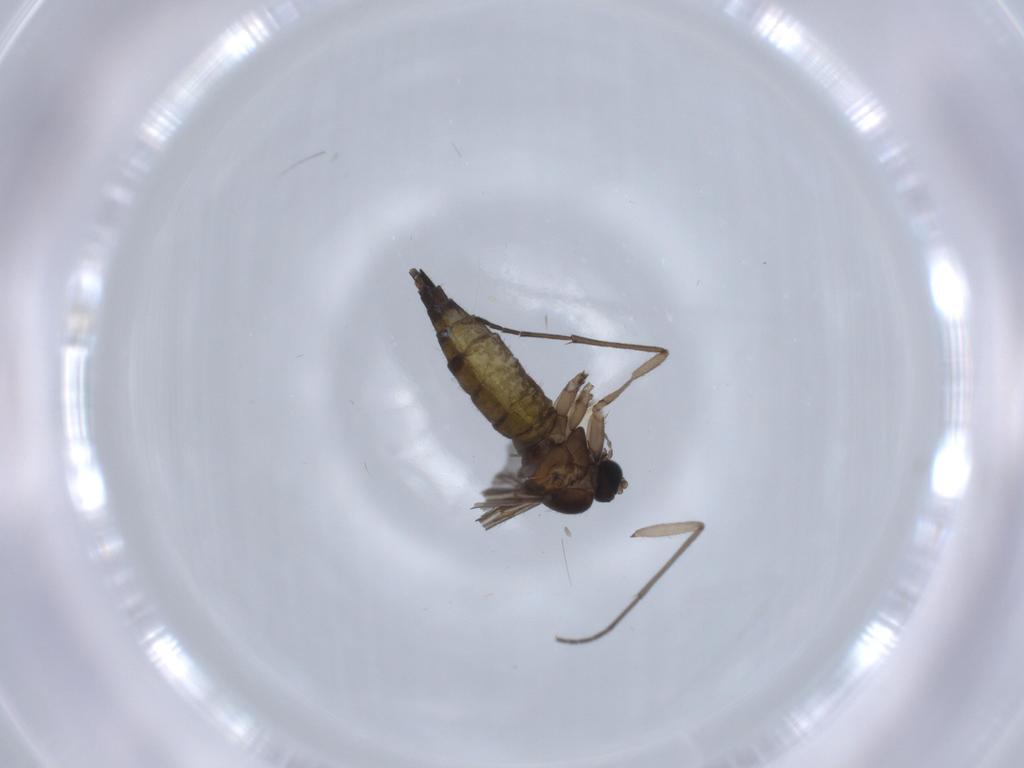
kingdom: Animalia
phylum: Arthropoda
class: Insecta
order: Diptera
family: Sciaridae
